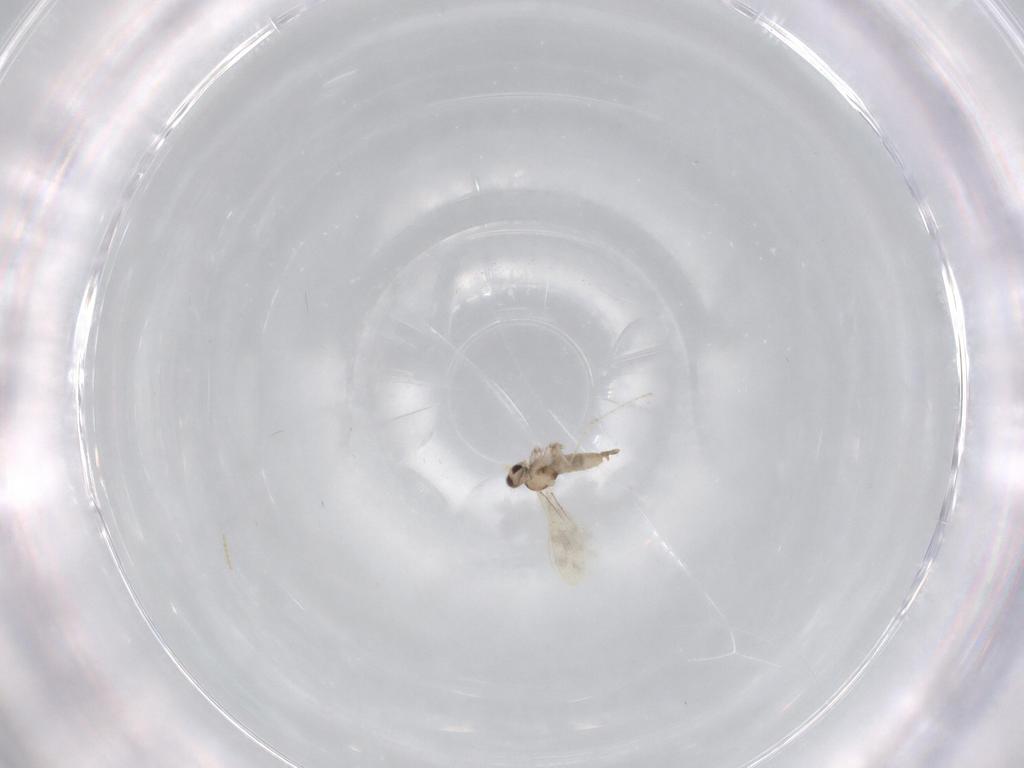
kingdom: Animalia
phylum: Arthropoda
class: Insecta
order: Diptera
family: Cecidomyiidae
